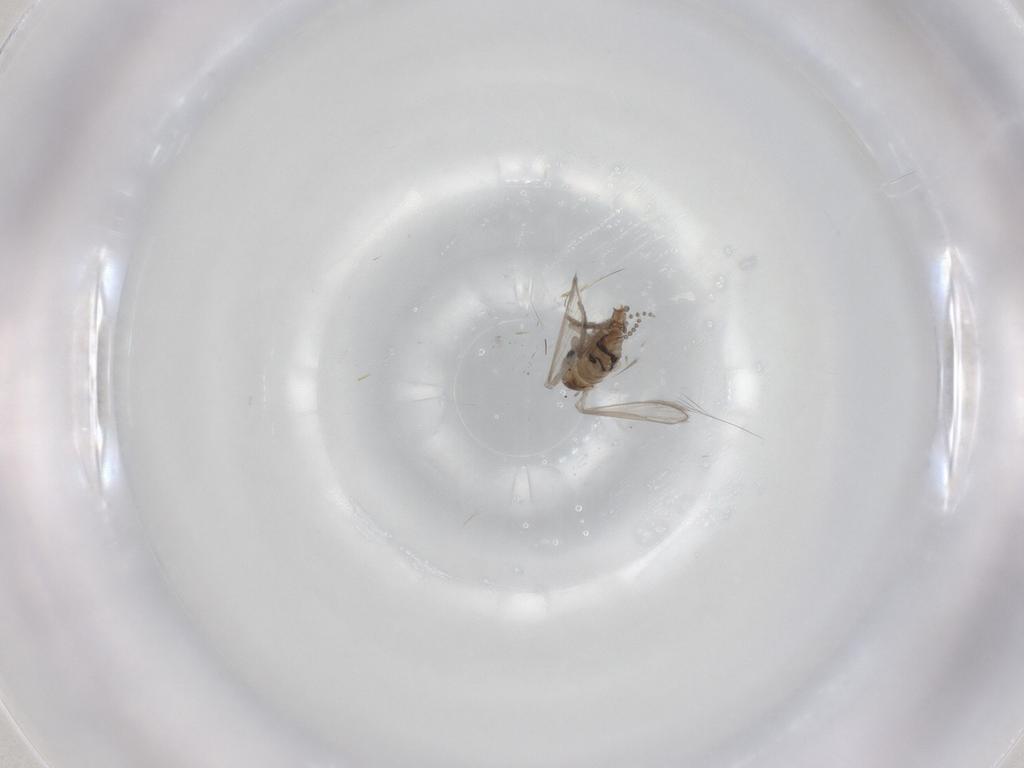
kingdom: Animalia
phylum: Arthropoda
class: Insecta
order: Diptera
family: Psychodidae
